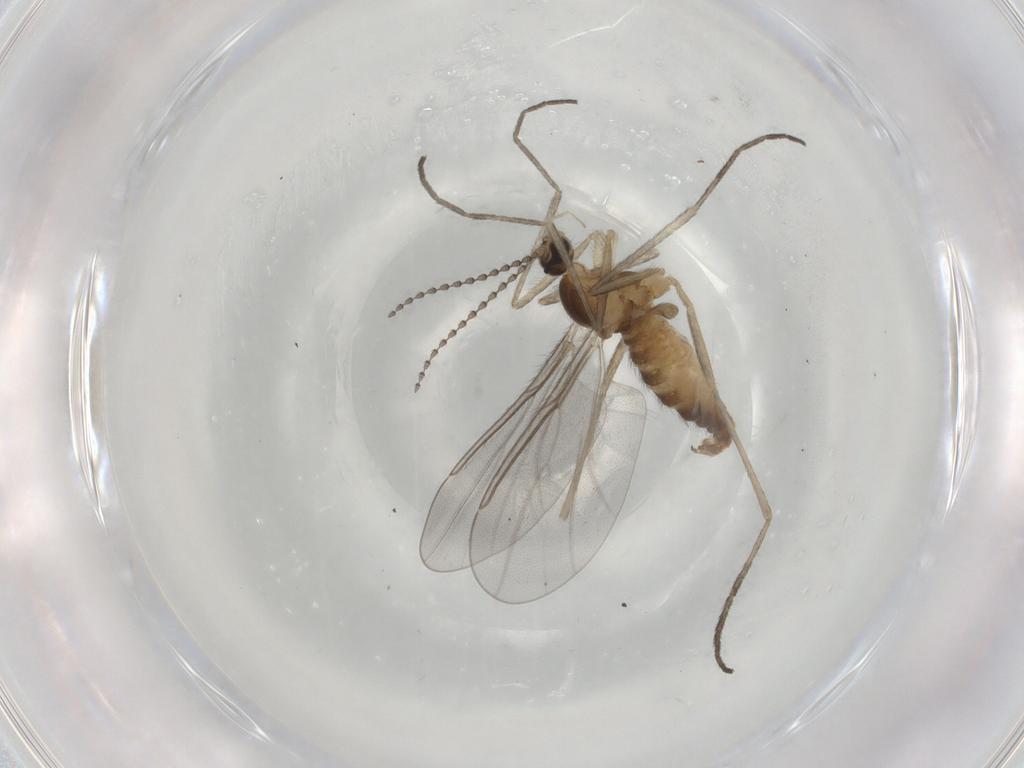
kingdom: Animalia
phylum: Arthropoda
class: Insecta
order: Diptera
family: Cecidomyiidae
